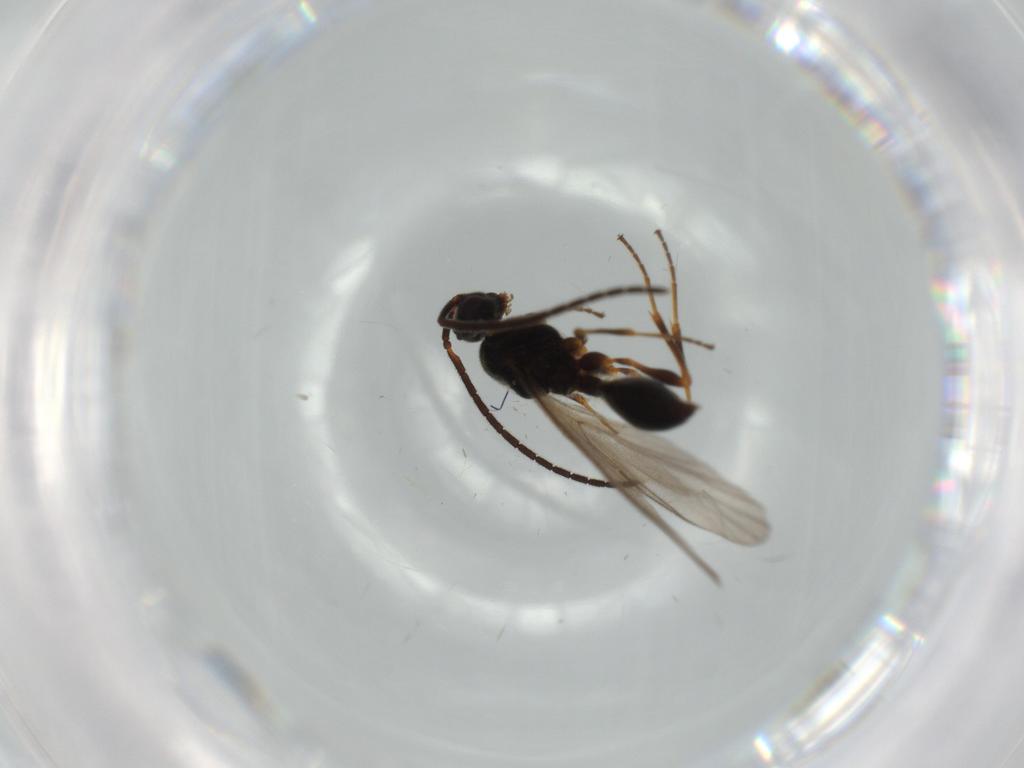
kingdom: Animalia
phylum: Arthropoda
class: Insecta
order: Hymenoptera
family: Diapriidae
